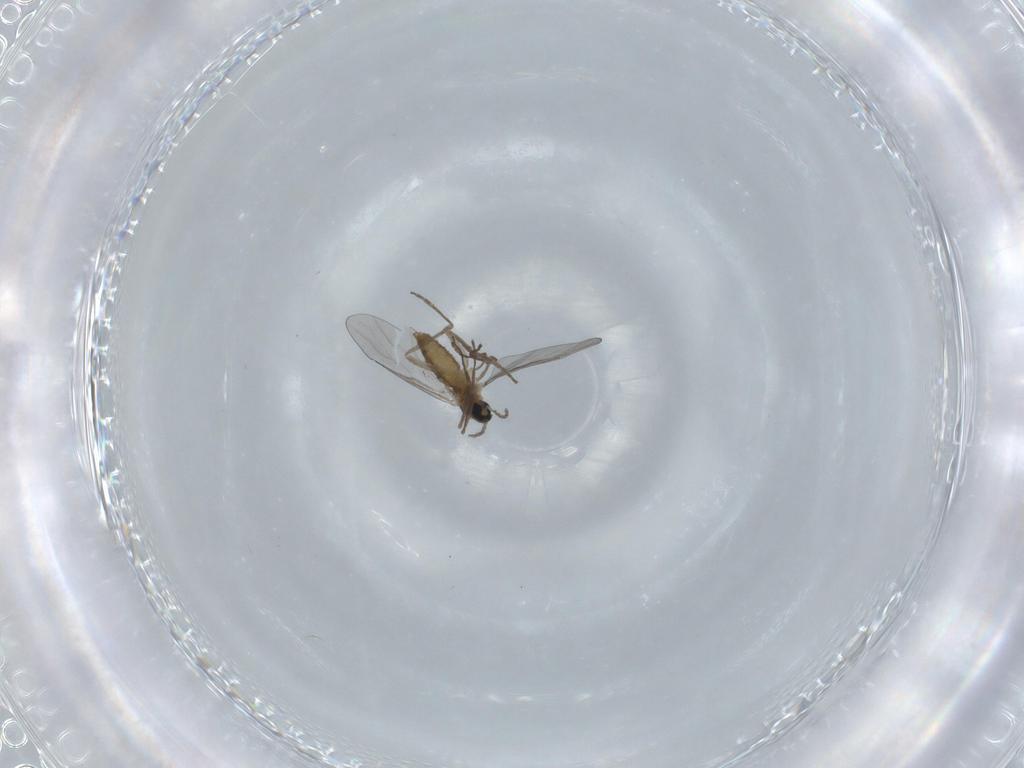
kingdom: Animalia
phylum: Arthropoda
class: Insecta
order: Diptera
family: Cecidomyiidae
